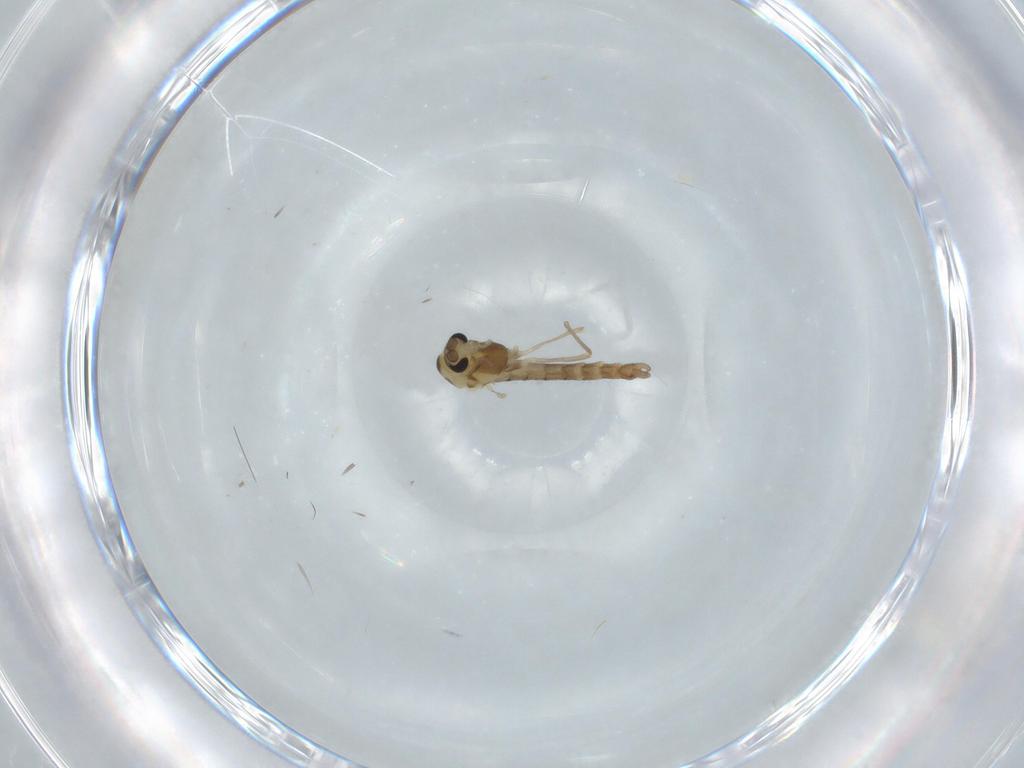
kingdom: Animalia
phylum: Arthropoda
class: Insecta
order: Diptera
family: Chironomidae
